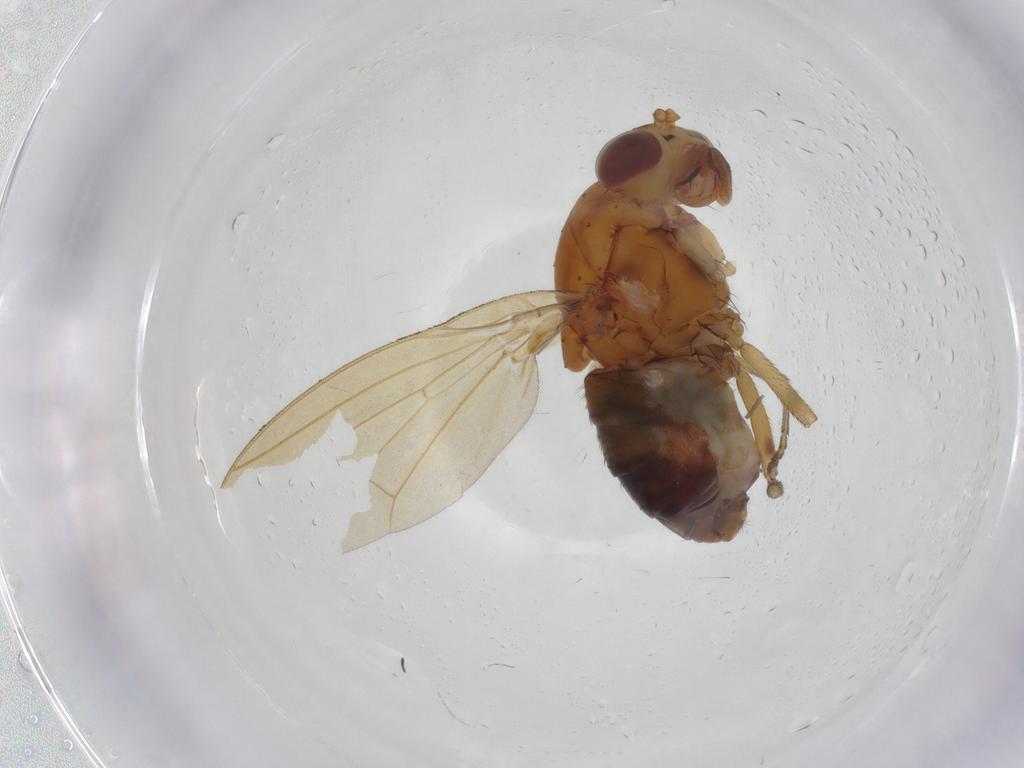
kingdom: Animalia
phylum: Arthropoda
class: Insecta
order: Diptera
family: Lauxaniidae
